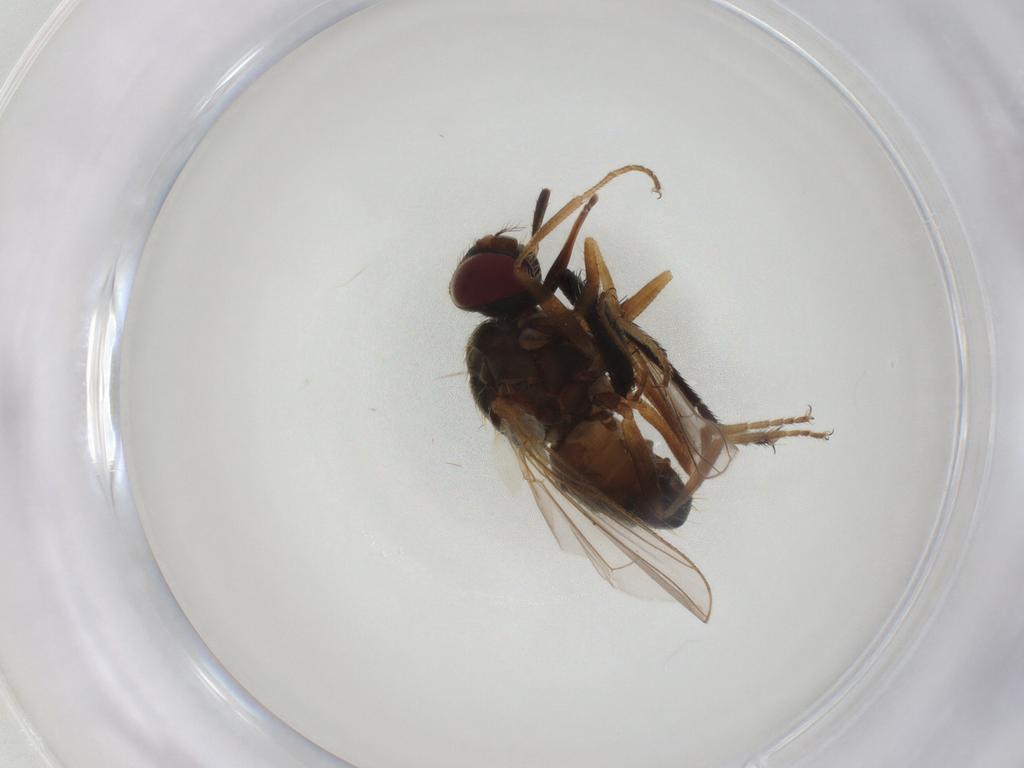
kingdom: Animalia
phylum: Arthropoda
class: Insecta
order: Diptera
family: Muscidae
